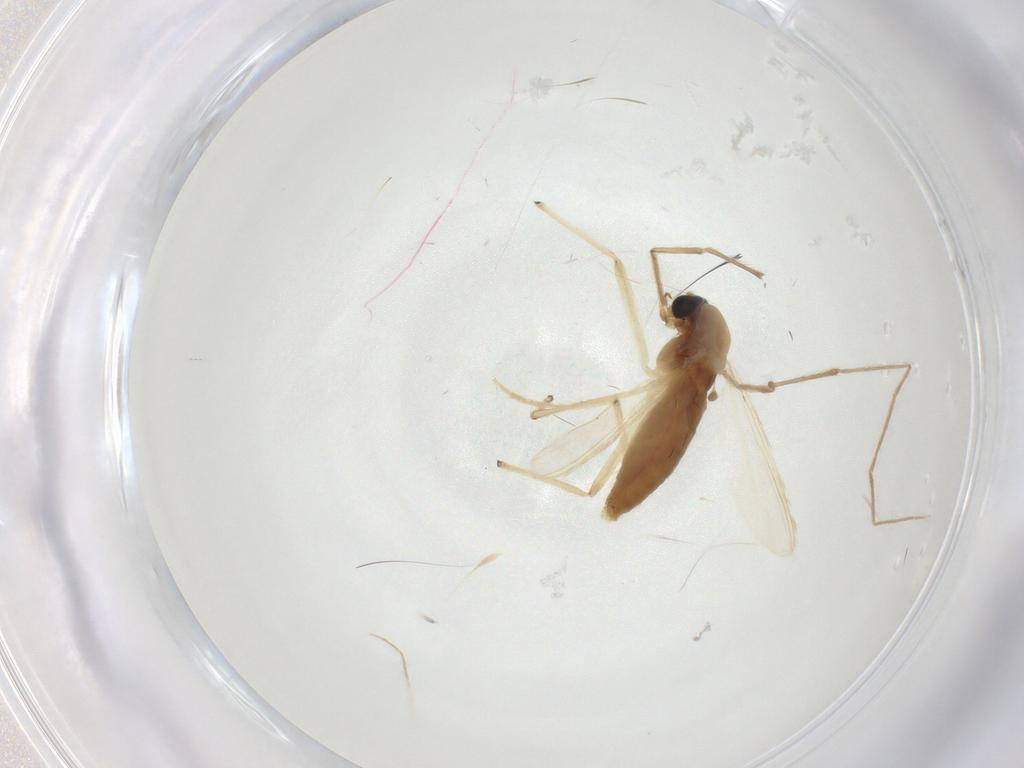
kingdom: Animalia
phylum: Arthropoda
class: Insecta
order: Diptera
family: Chironomidae
